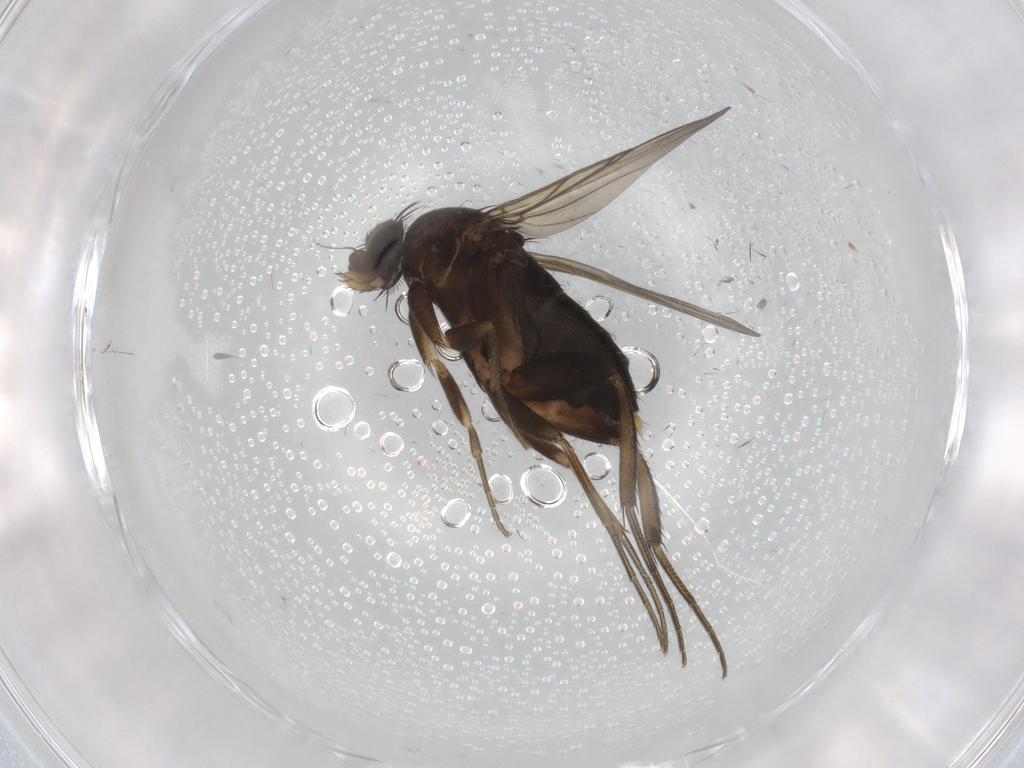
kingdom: Animalia
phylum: Arthropoda
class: Insecta
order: Diptera
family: Phoridae
